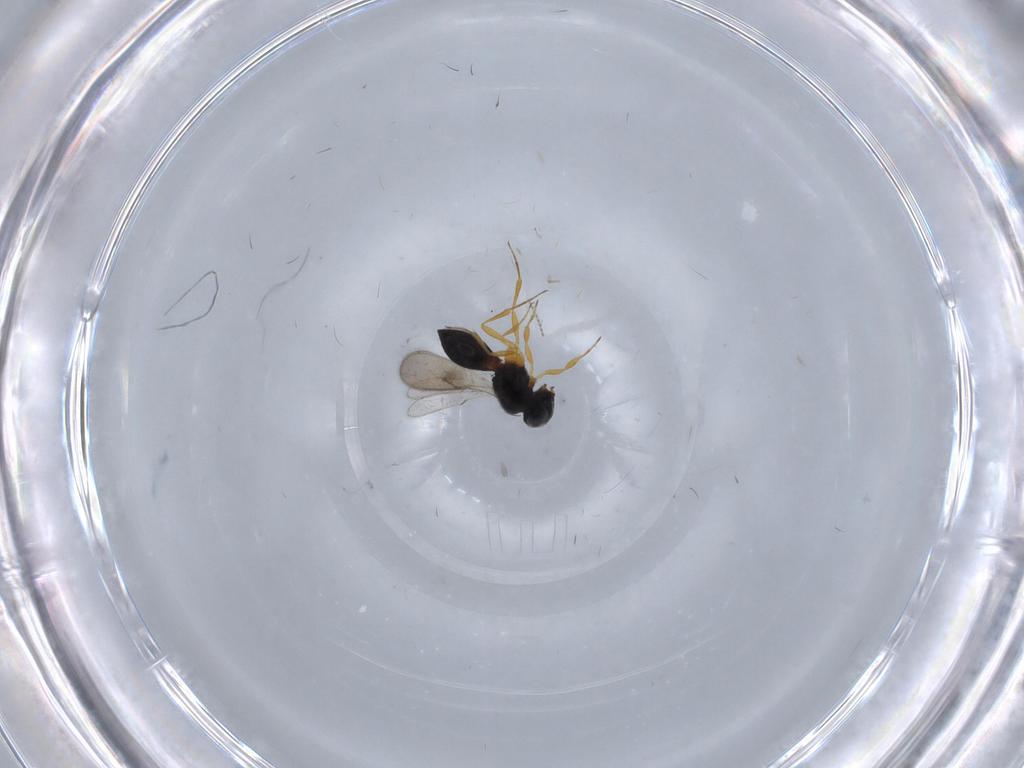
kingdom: Animalia
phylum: Arthropoda
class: Insecta
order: Hymenoptera
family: Scelionidae
